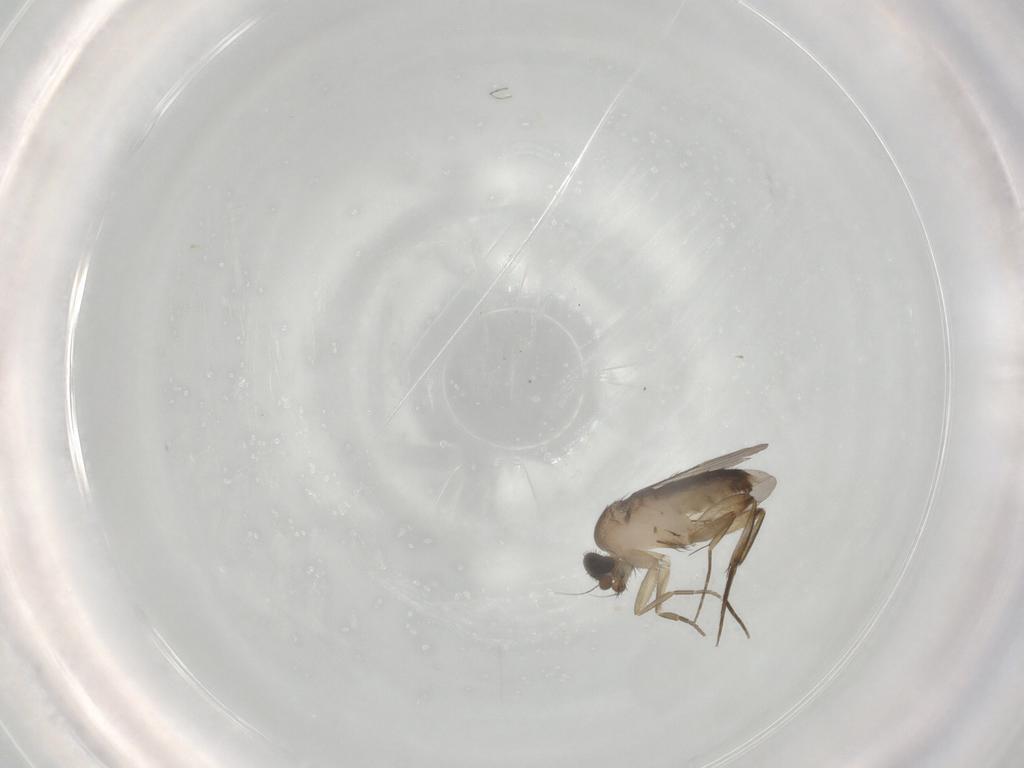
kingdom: Animalia
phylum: Arthropoda
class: Insecta
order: Diptera
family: Phoridae
